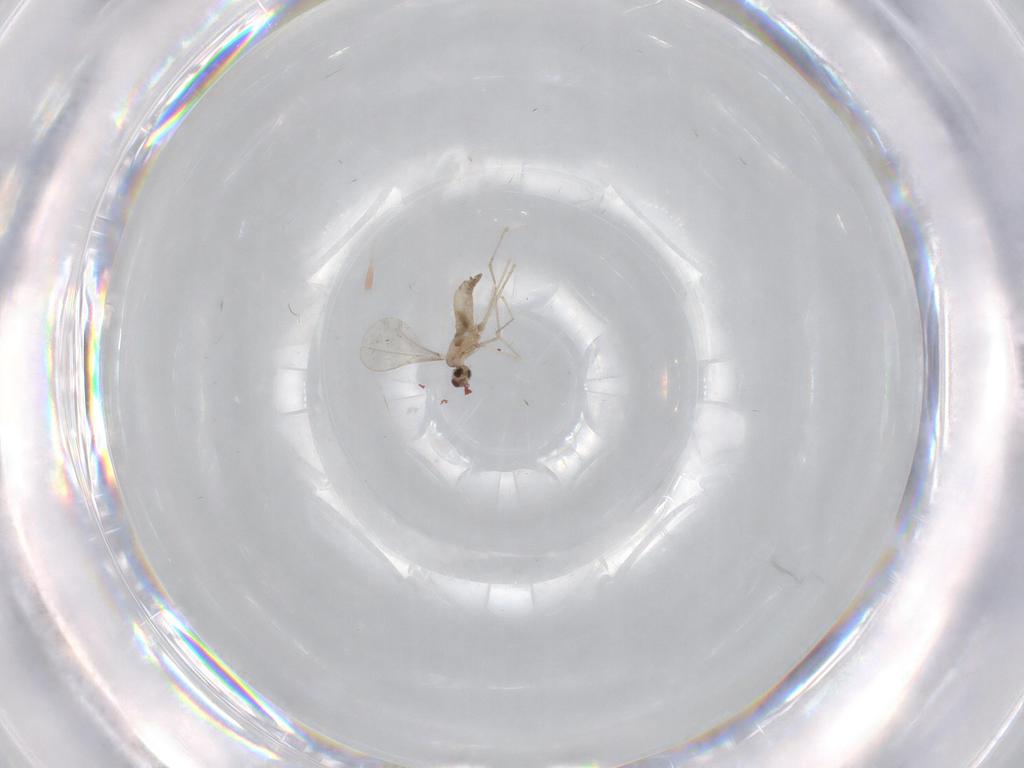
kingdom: Animalia
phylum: Arthropoda
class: Insecta
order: Diptera
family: Cecidomyiidae
